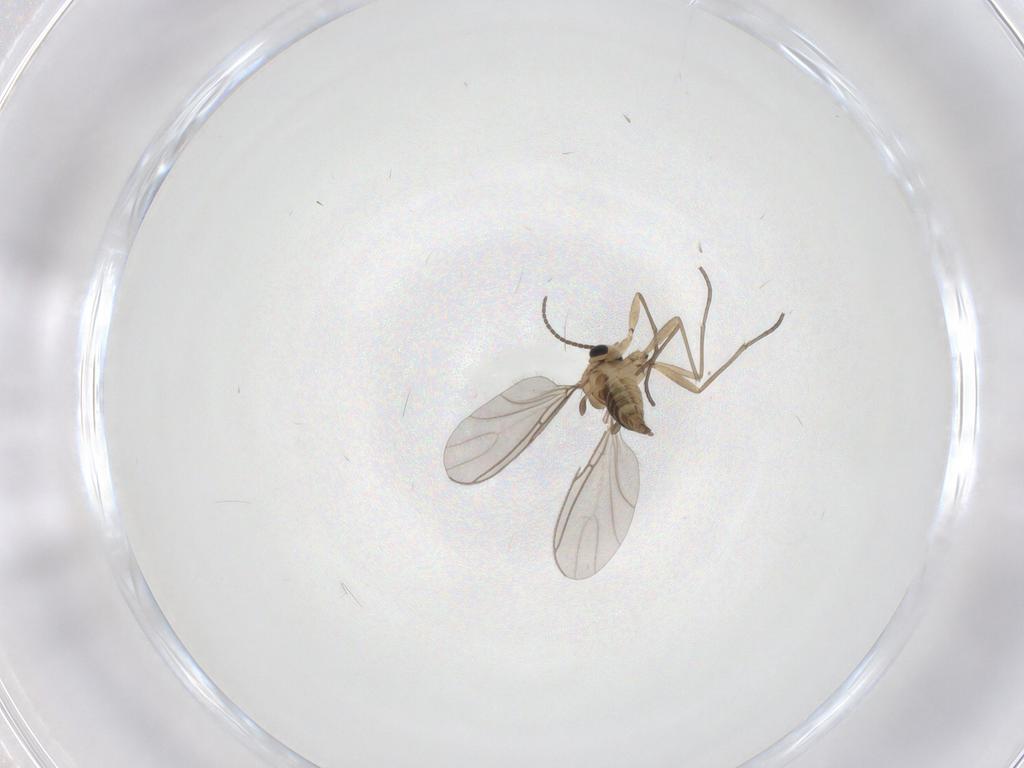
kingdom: Animalia
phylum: Arthropoda
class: Insecta
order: Diptera
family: Sciaridae
